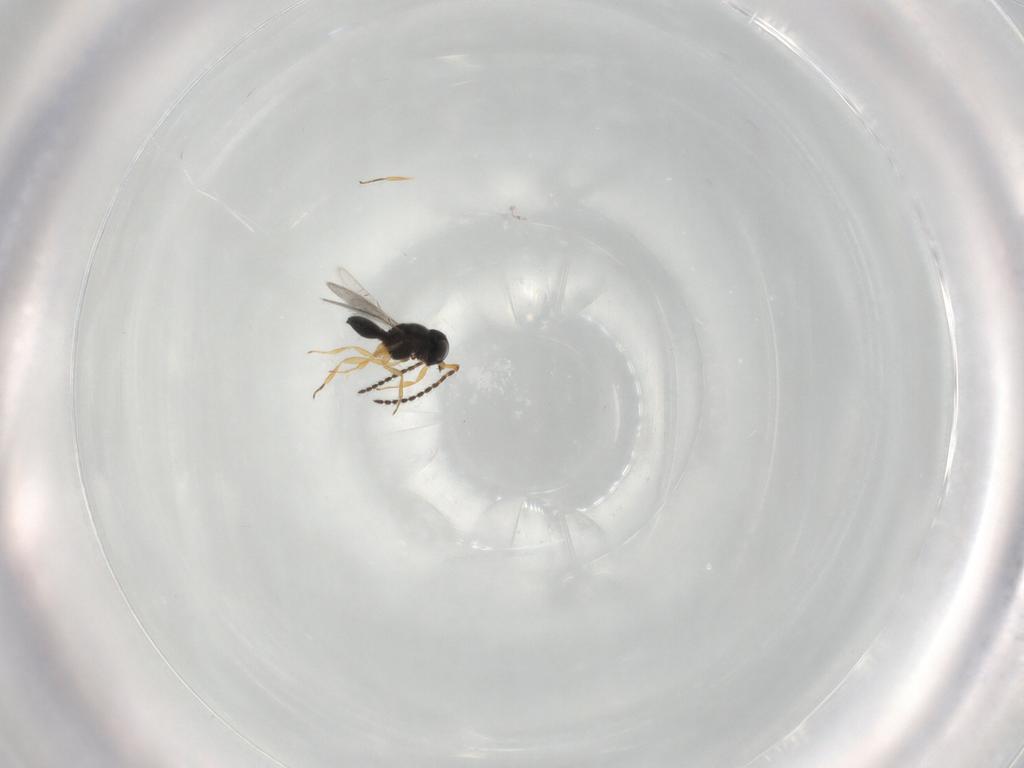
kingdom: Animalia
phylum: Arthropoda
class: Insecta
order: Hymenoptera
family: Scelionidae
